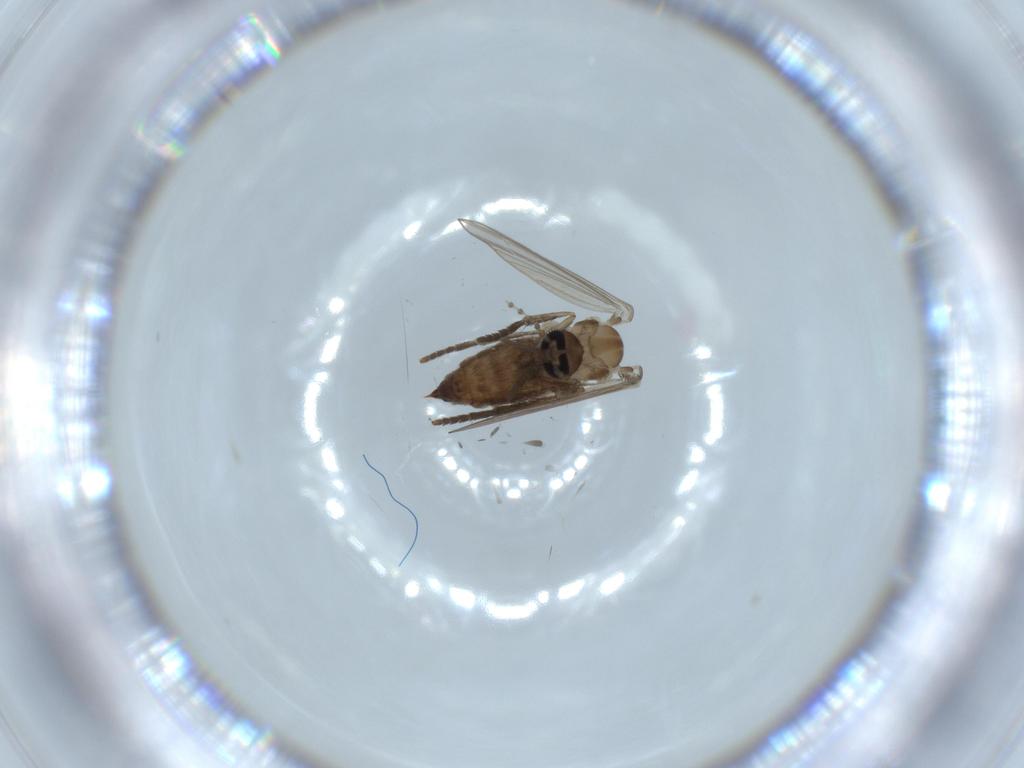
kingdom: Animalia
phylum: Arthropoda
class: Insecta
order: Diptera
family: Psychodidae
